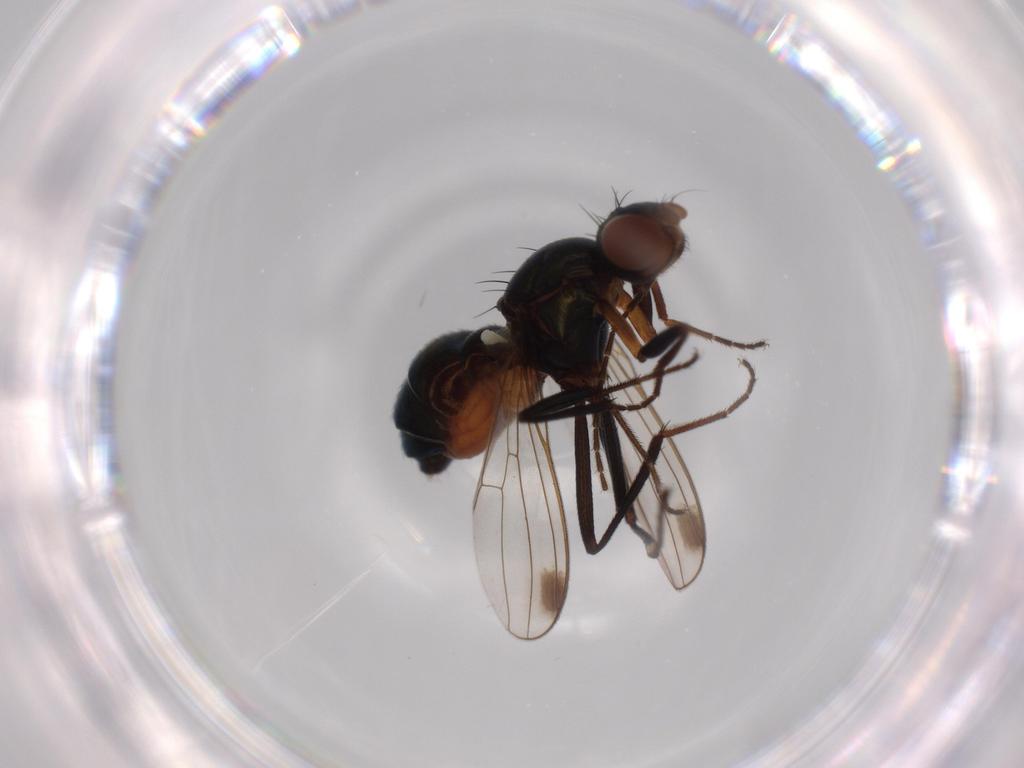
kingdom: Animalia
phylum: Arthropoda
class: Insecta
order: Diptera
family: Sepsidae
